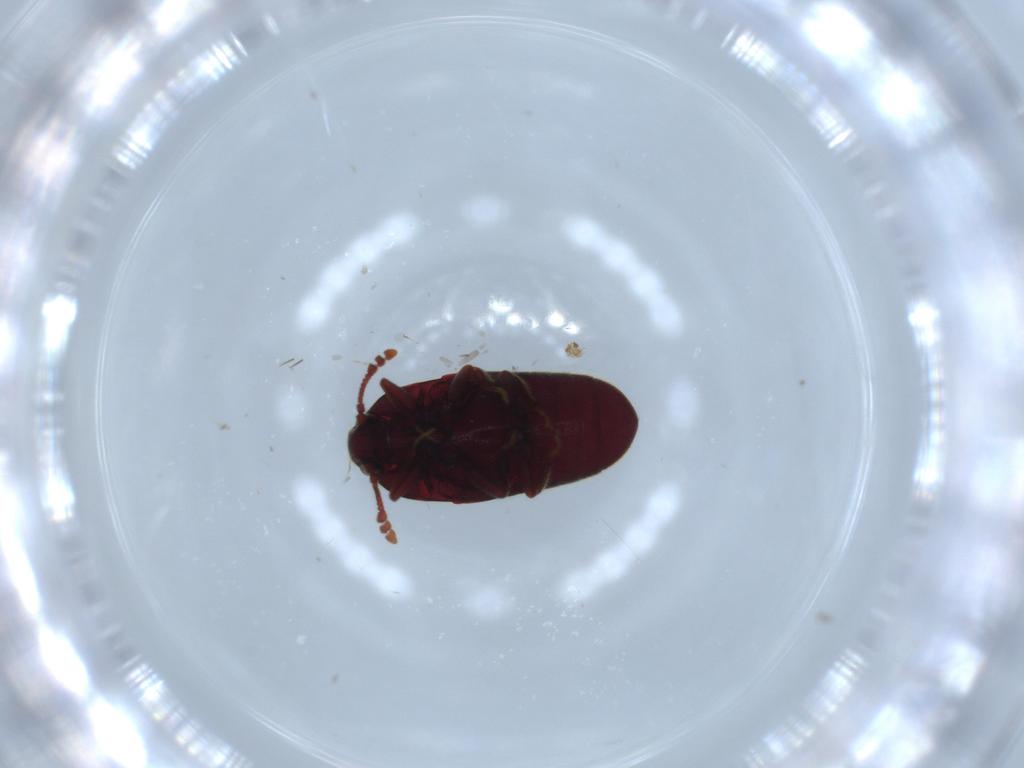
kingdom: Animalia
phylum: Arthropoda
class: Insecta
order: Coleoptera
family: Throscidae
